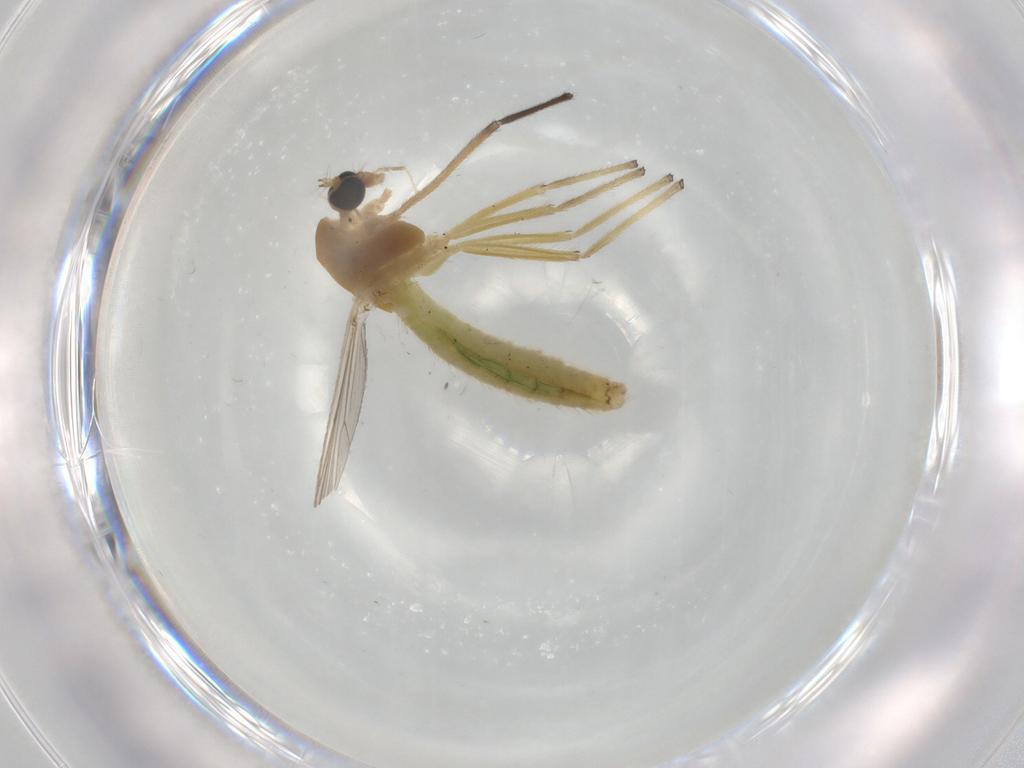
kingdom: Animalia
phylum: Arthropoda
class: Insecta
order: Diptera
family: Chironomidae
